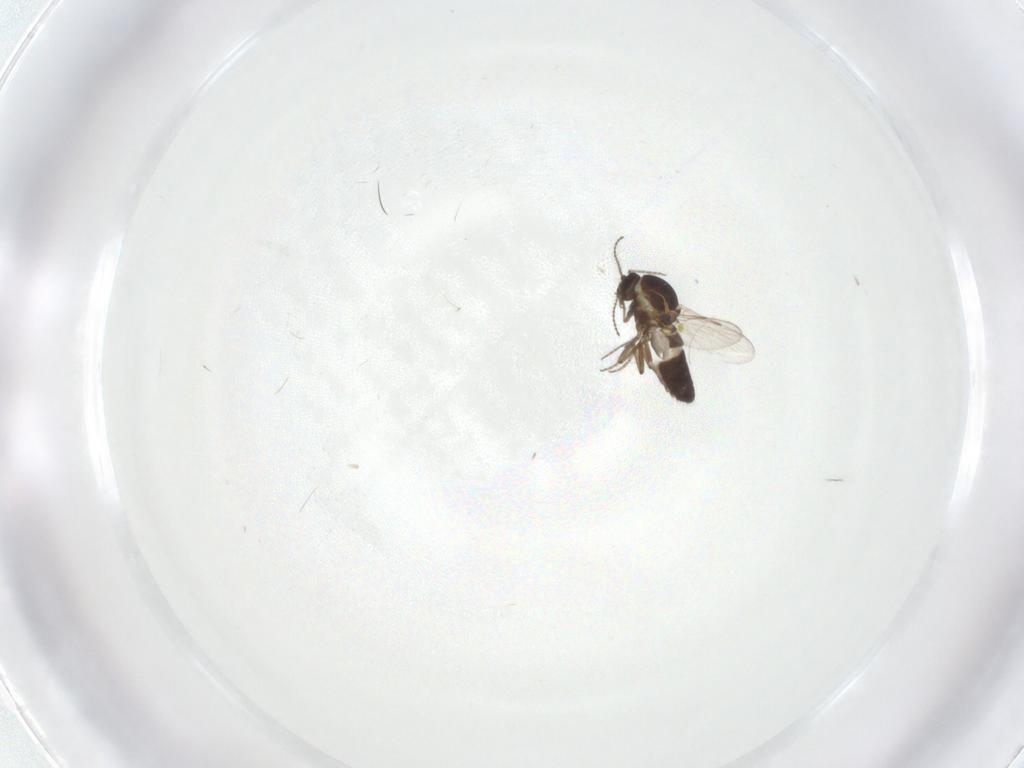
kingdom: Animalia
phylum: Arthropoda
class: Insecta
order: Diptera
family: Ceratopogonidae
